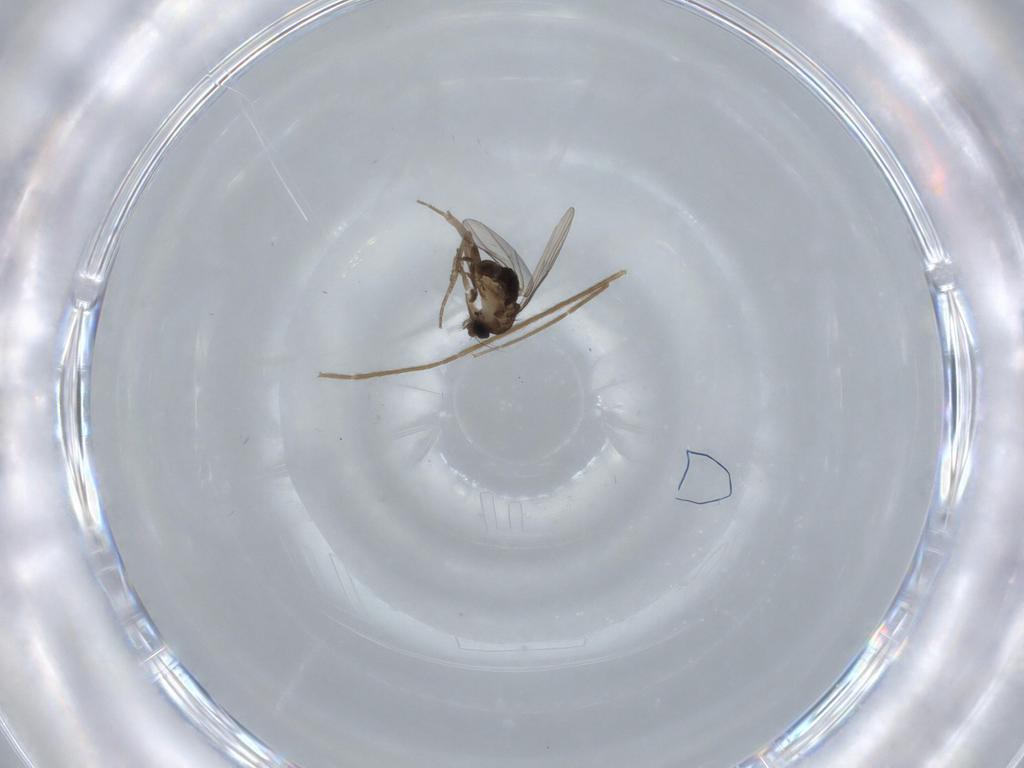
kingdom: Animalia
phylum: Arthropoda
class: Insecta
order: Diptera
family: Phoridae
